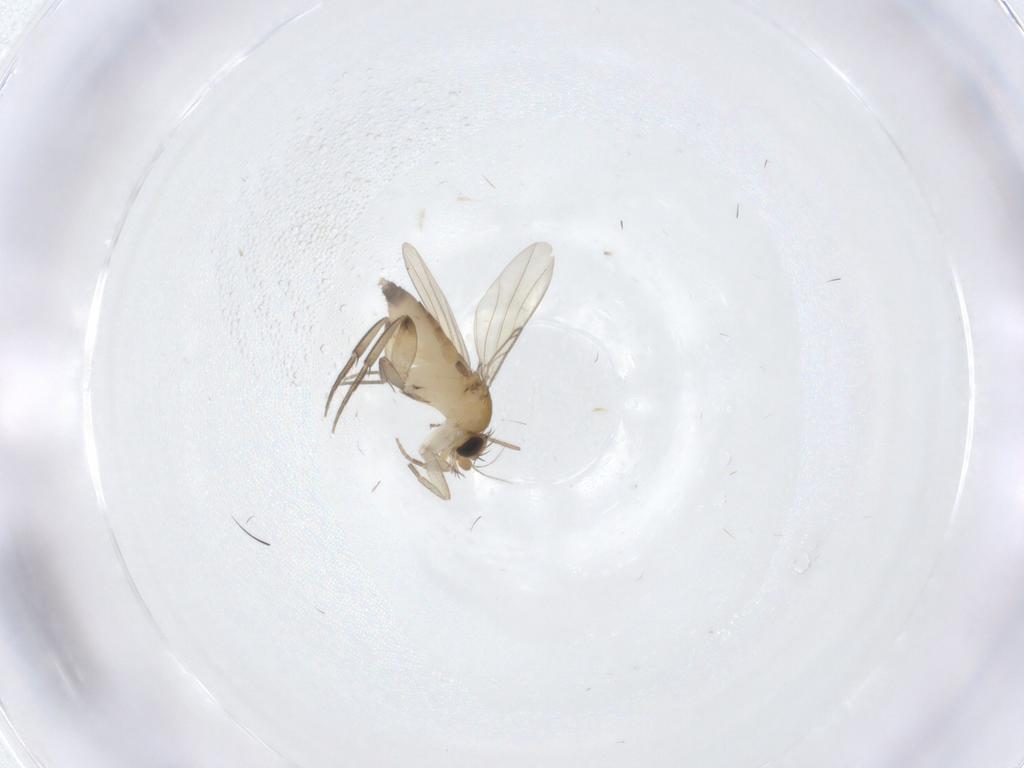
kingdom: Animalia
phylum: Arthropoda
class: Insecta
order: Diptera
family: Phoridae
